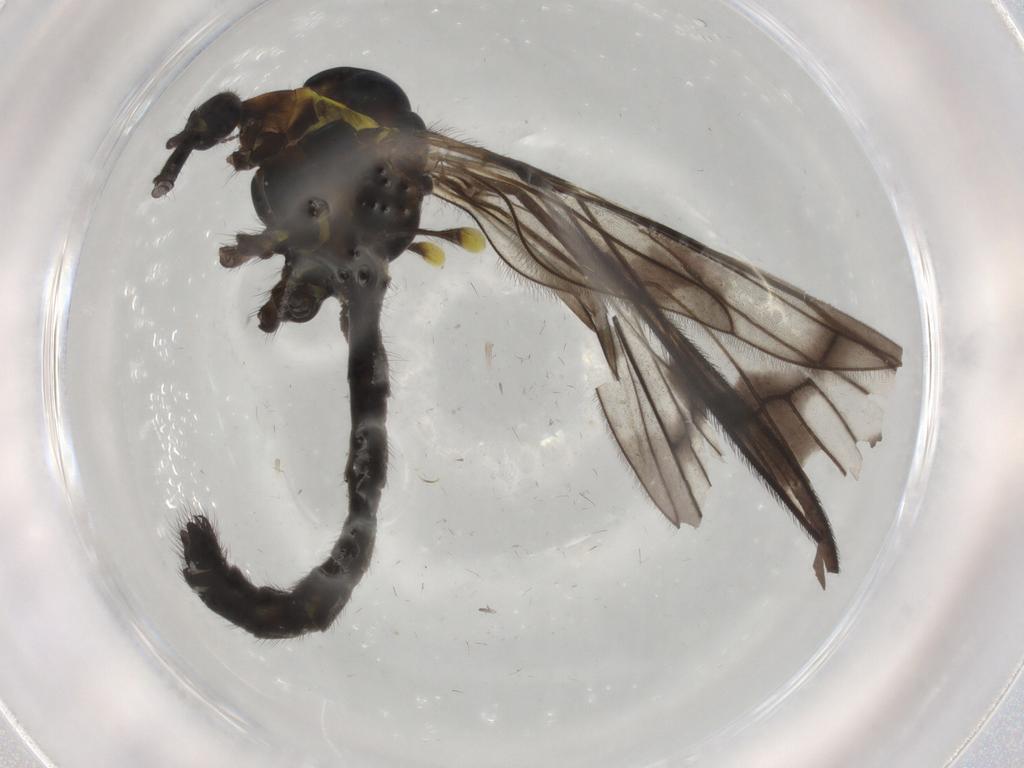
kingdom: Animalia
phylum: Arthropoda
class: Insecta
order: Diptera
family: Limoniidae
